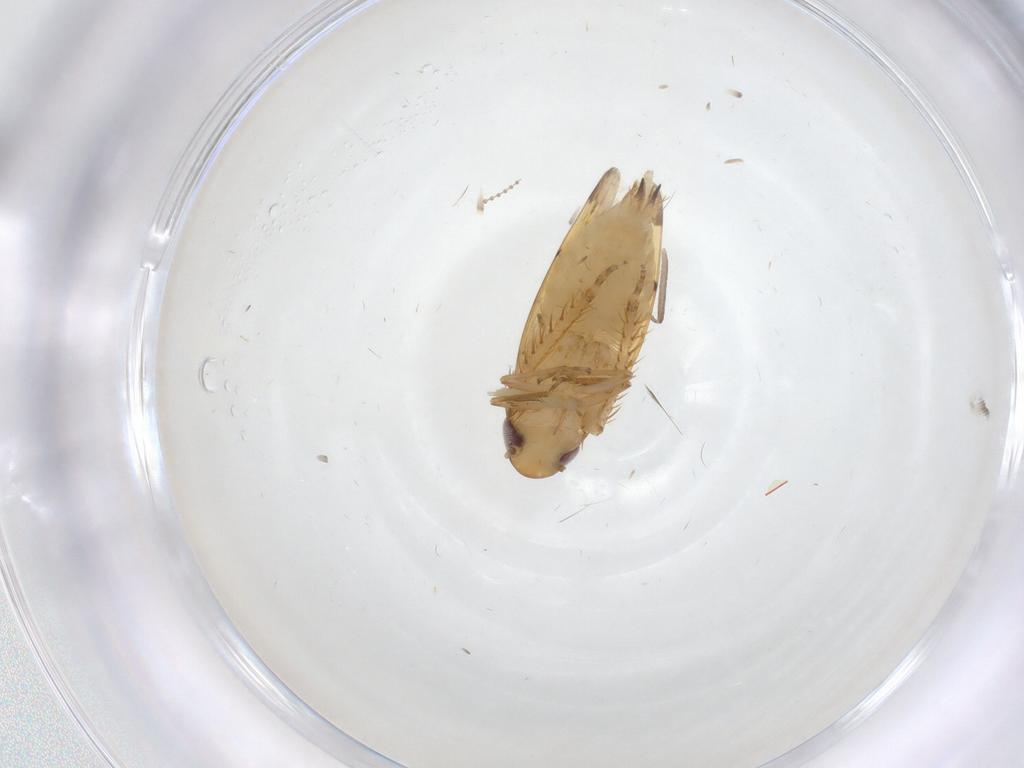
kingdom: Animalia
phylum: Arthropoda
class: Insecta
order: Hemiptera
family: Cicadellidae
